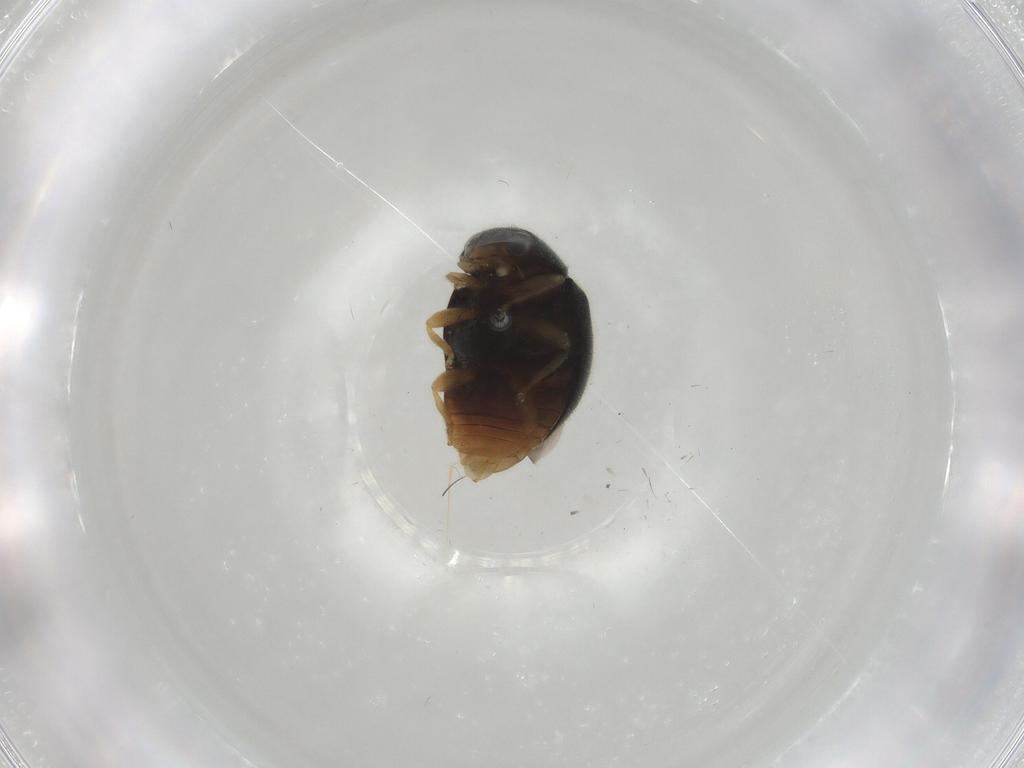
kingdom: Animalia
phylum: Arthropoda
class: Insecta
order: Coleoptera
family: Coccinellidae
